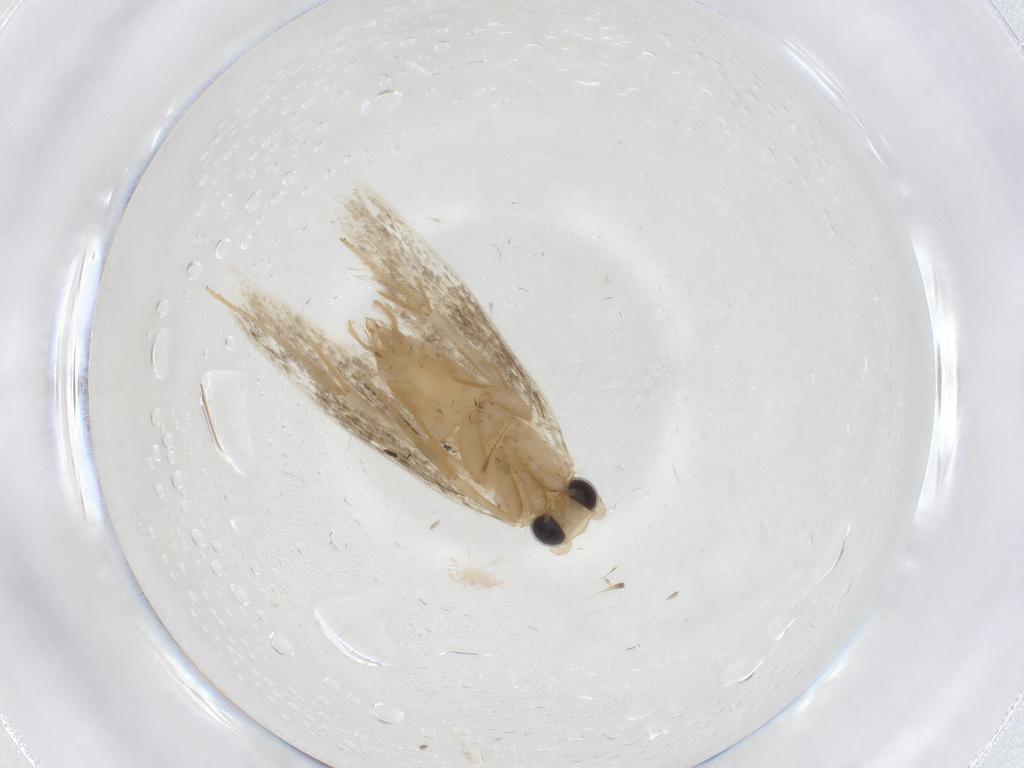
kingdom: Animalia
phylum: Arthropoda
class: Insecta
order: Lepidoptera
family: Tineidae
